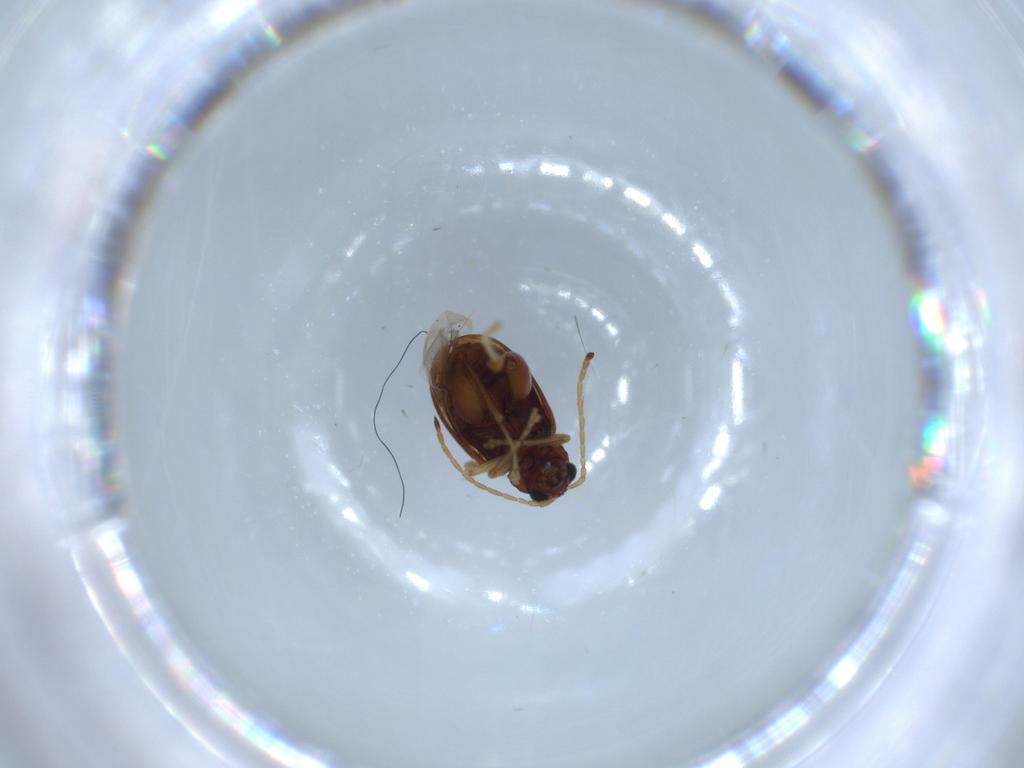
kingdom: Animalia
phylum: Arthropoda
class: Insecta
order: Coleoptera
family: Chrysomelidae
